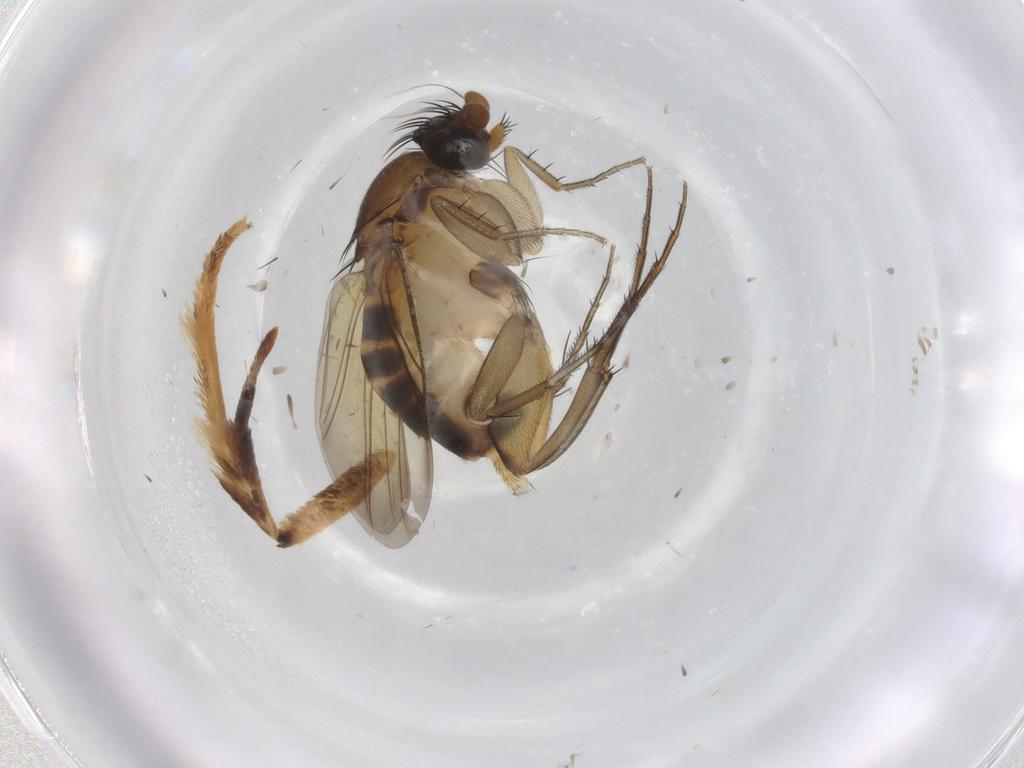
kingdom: Animalia
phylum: Arthropoda
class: Insecta
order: Diptera
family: Phoridae
